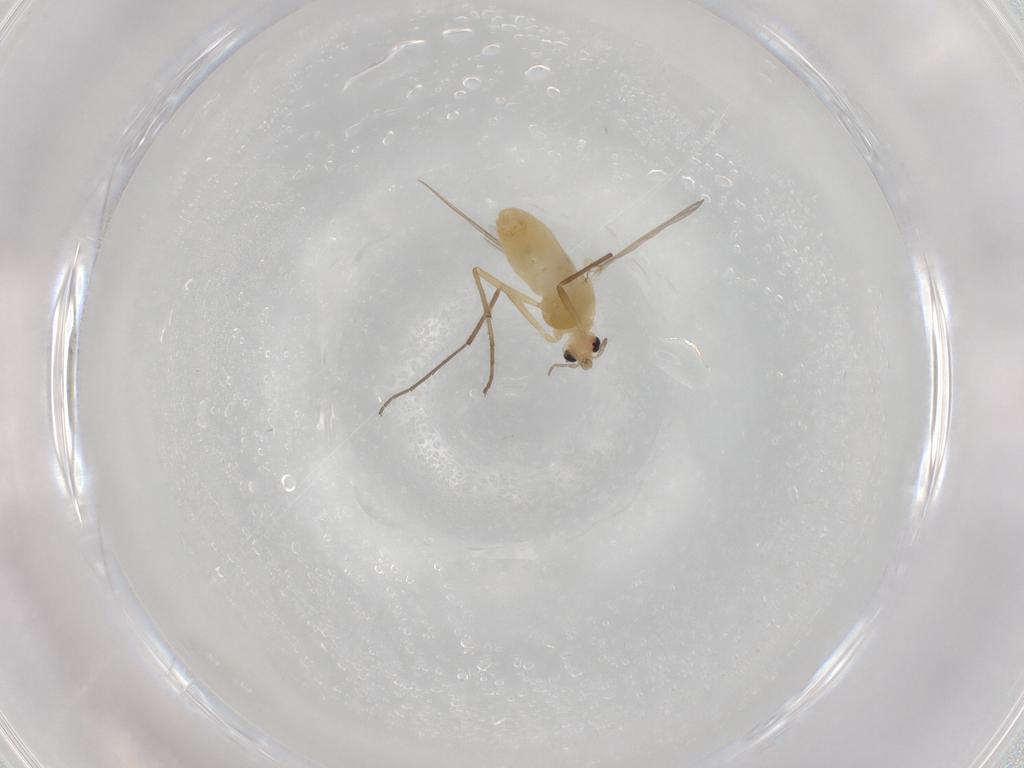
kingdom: Animalia
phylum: Arthropoda
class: Insecta
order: Diptera
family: Chironomidae
